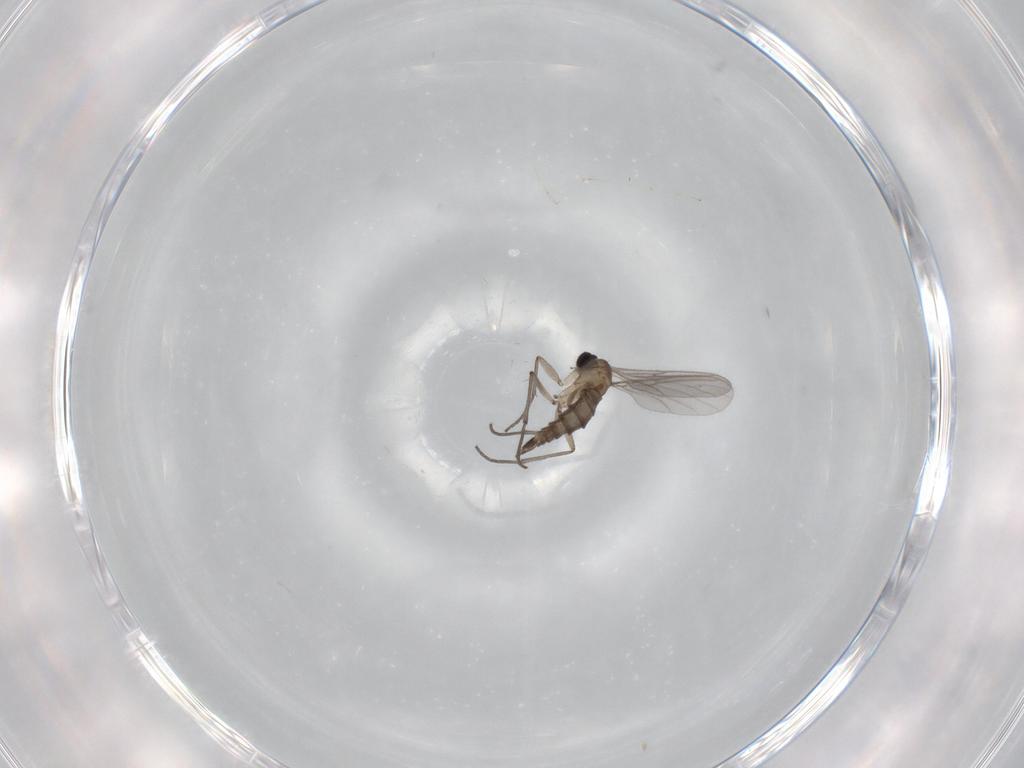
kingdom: Animalia
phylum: Arthropoda
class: Insecta
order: Diptera
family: Sciaridae
